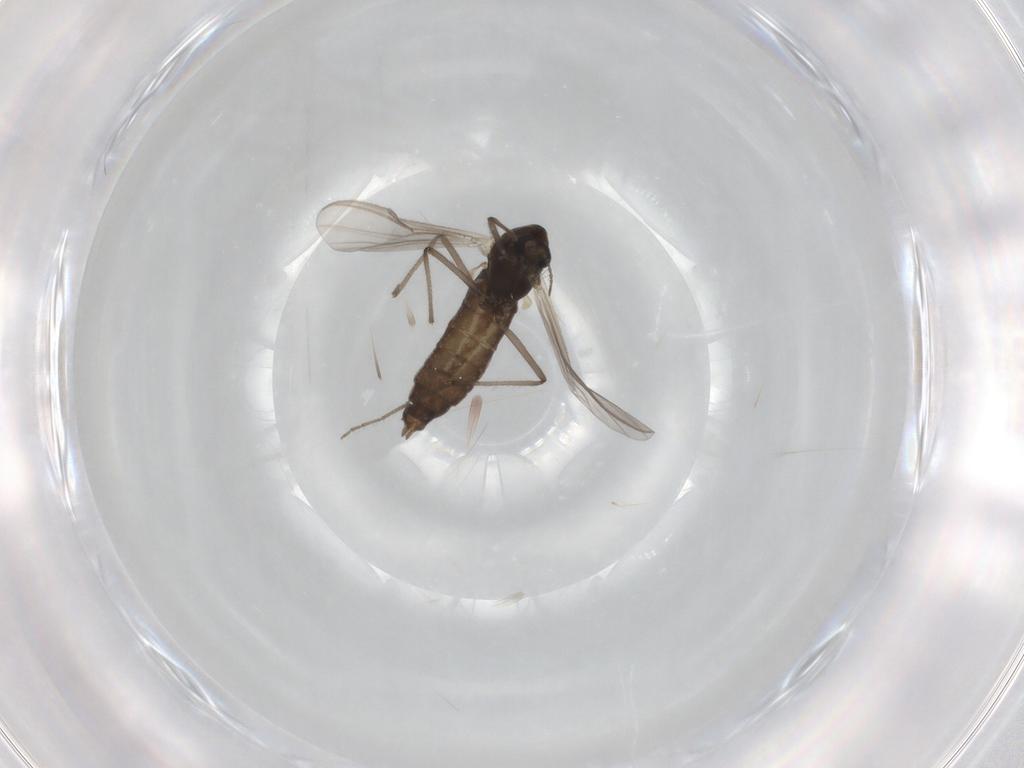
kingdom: Animalia
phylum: Arthropoda
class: Insecta
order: Diptera
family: Chironomidae
